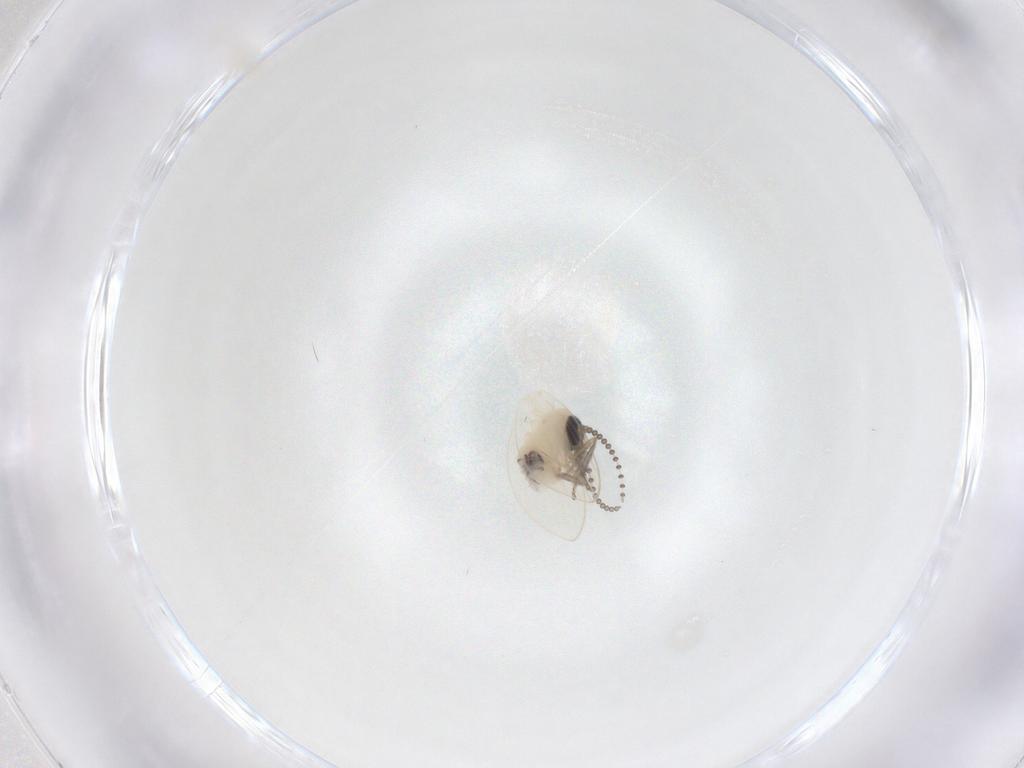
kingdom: Animalia
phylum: Arthropoda
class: Insecta
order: Diptera
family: Psychodidae
